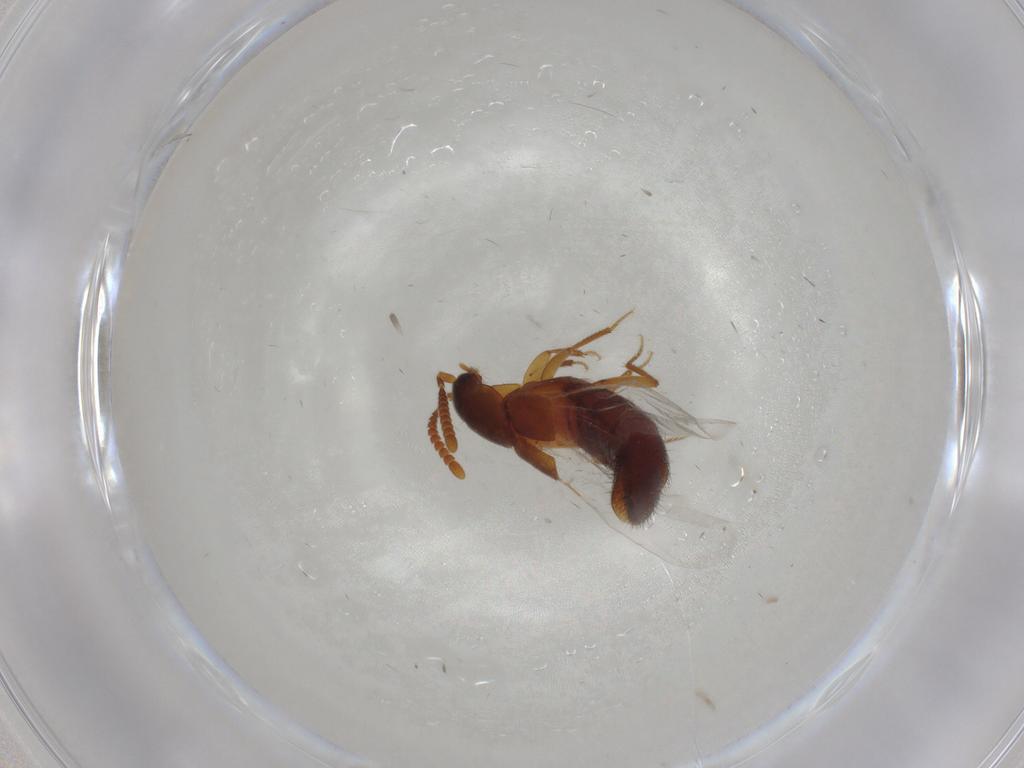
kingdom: Animalia
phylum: Arthropoda
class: Insecta
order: Coleoptera
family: Staphylinidae
